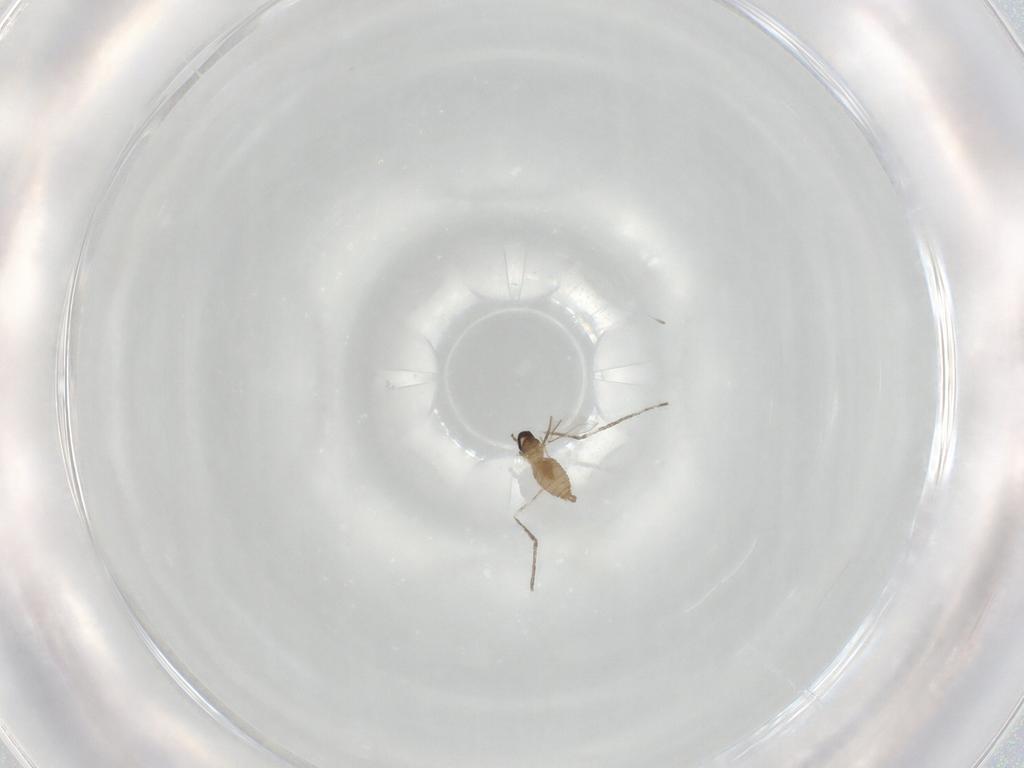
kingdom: Animalia
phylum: Arthropoda
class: Insecta
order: Diptera
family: Cecidomyiidae
